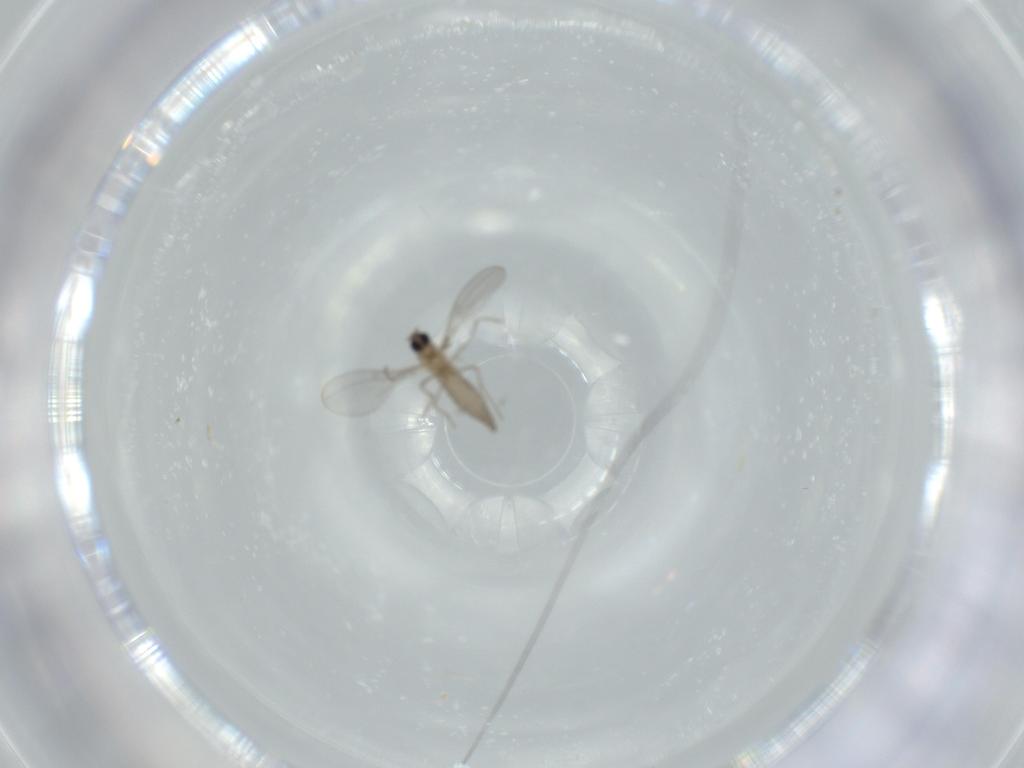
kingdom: Animalia
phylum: Arthropoda
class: Insecta
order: Diptera
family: Cecidomyiidae
